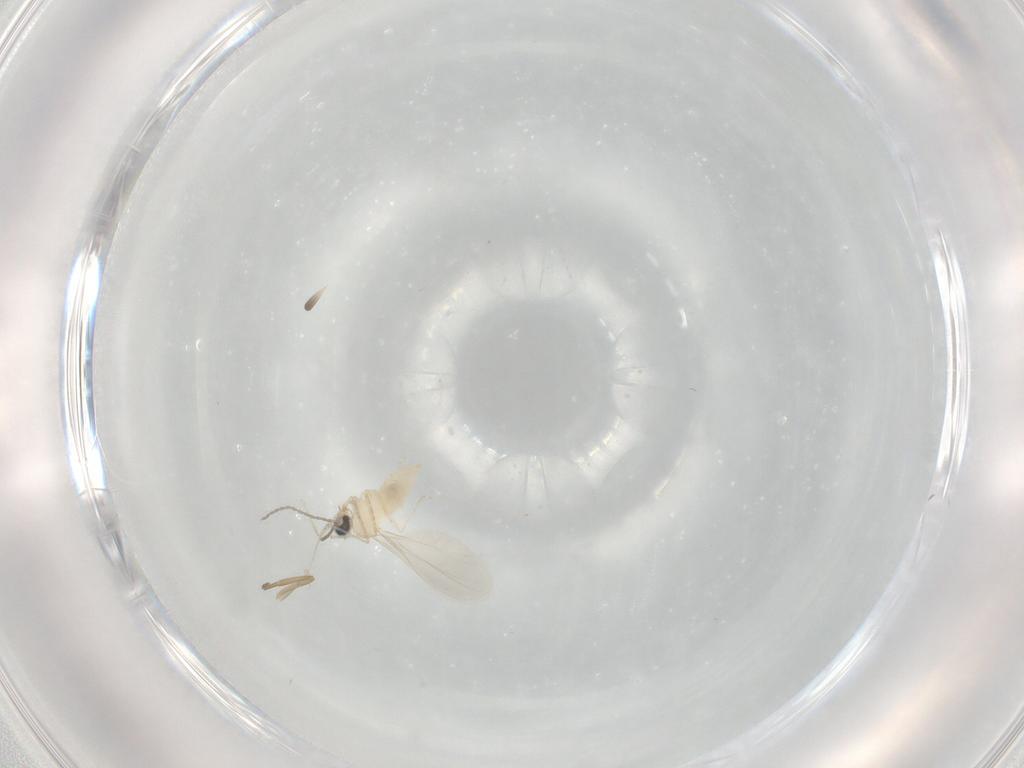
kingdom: Animalia
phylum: Arthropoda
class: Insecta
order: Diptera
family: Cecidomyiidae
